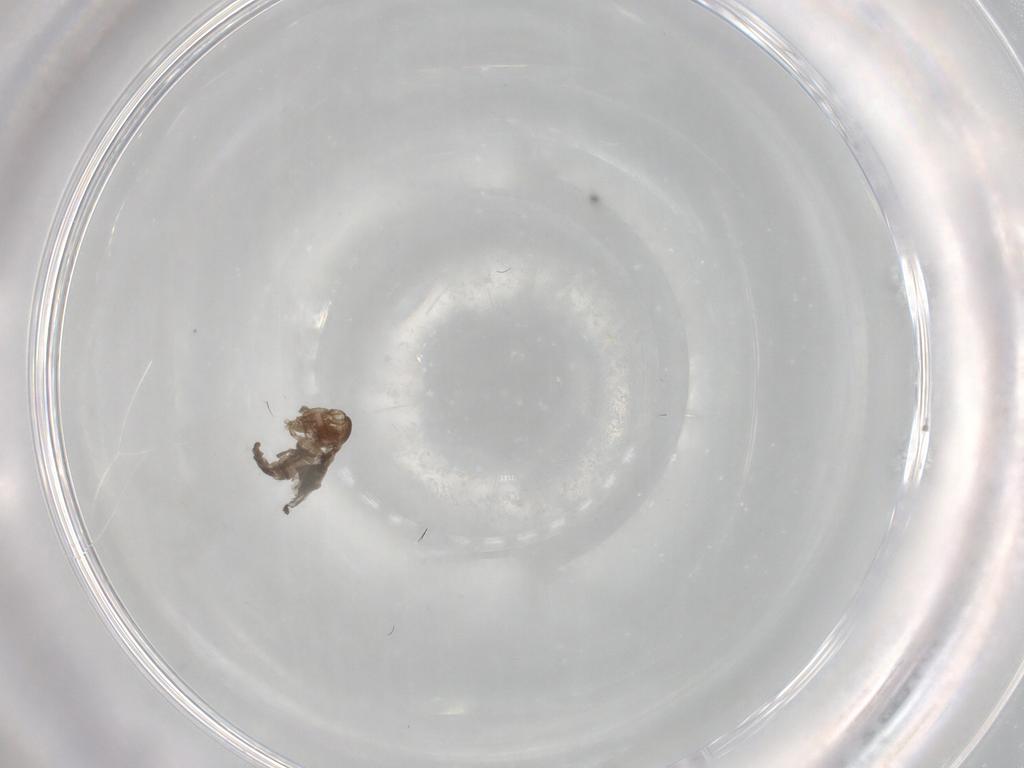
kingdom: Animalia
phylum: Arthropoda
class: Insecta
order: Diptera
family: Sciaridae
